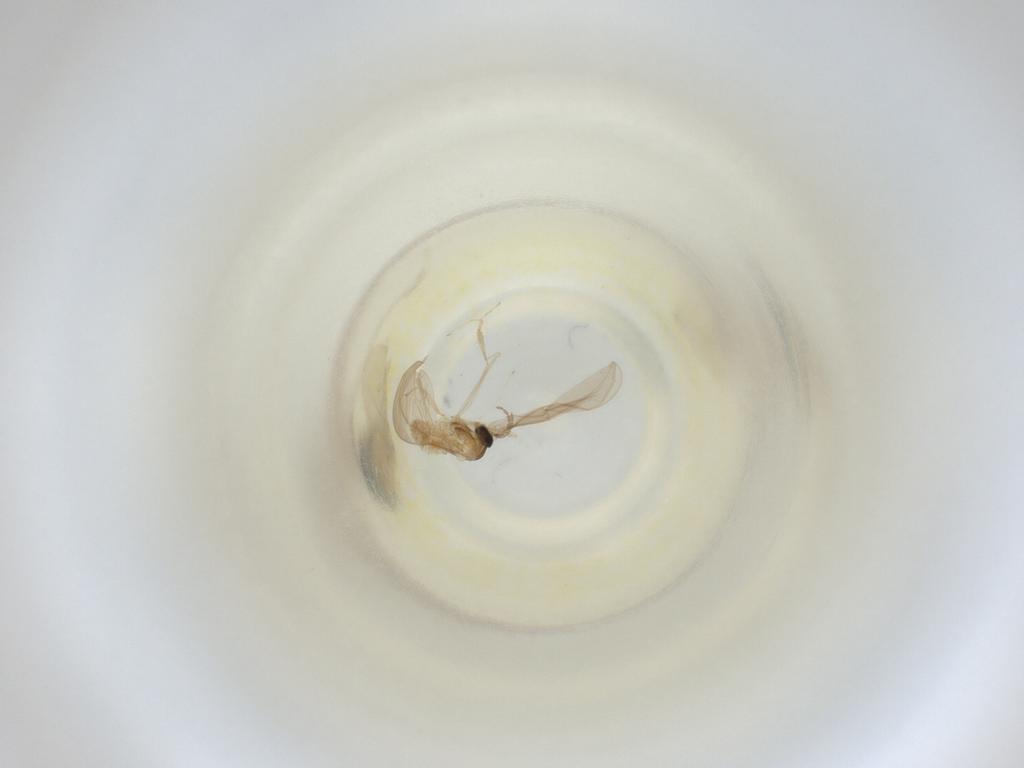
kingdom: Animalia
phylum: Arthropoda
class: Insecta
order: Diptera
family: Cecidomyiidae
